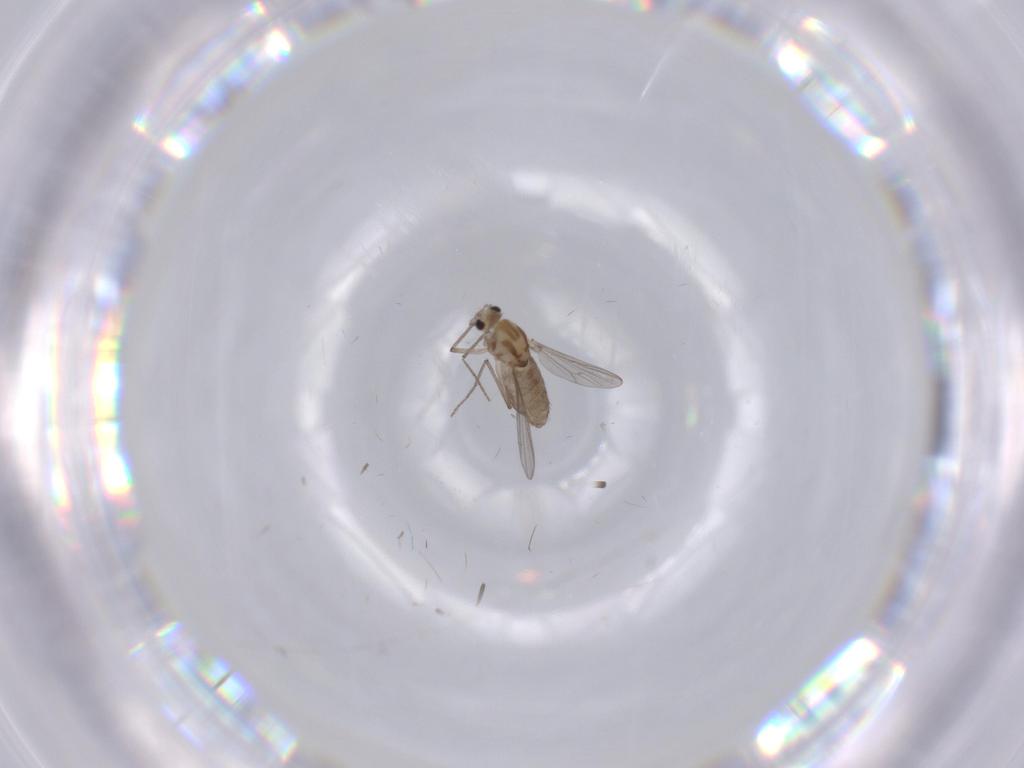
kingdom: Animalia
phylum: Arthropoda
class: Insecta
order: Diptera
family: Chironomidae
